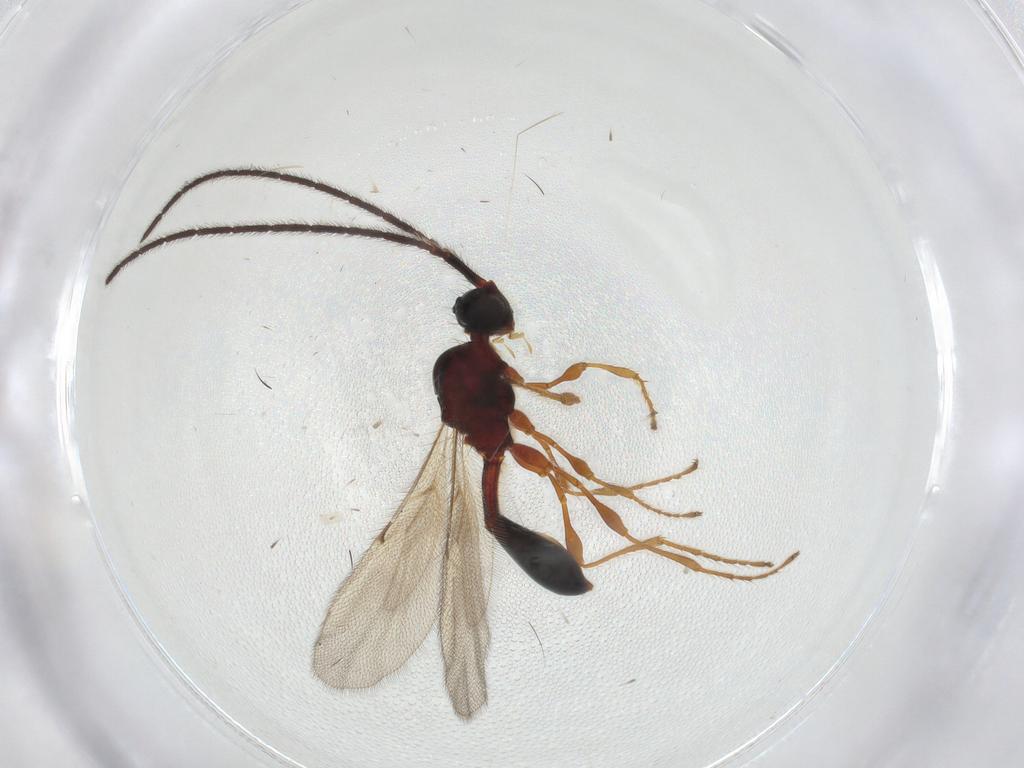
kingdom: Animalia
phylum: Arthropoda
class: Insecta
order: Hymenoptera
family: Diapriidae
